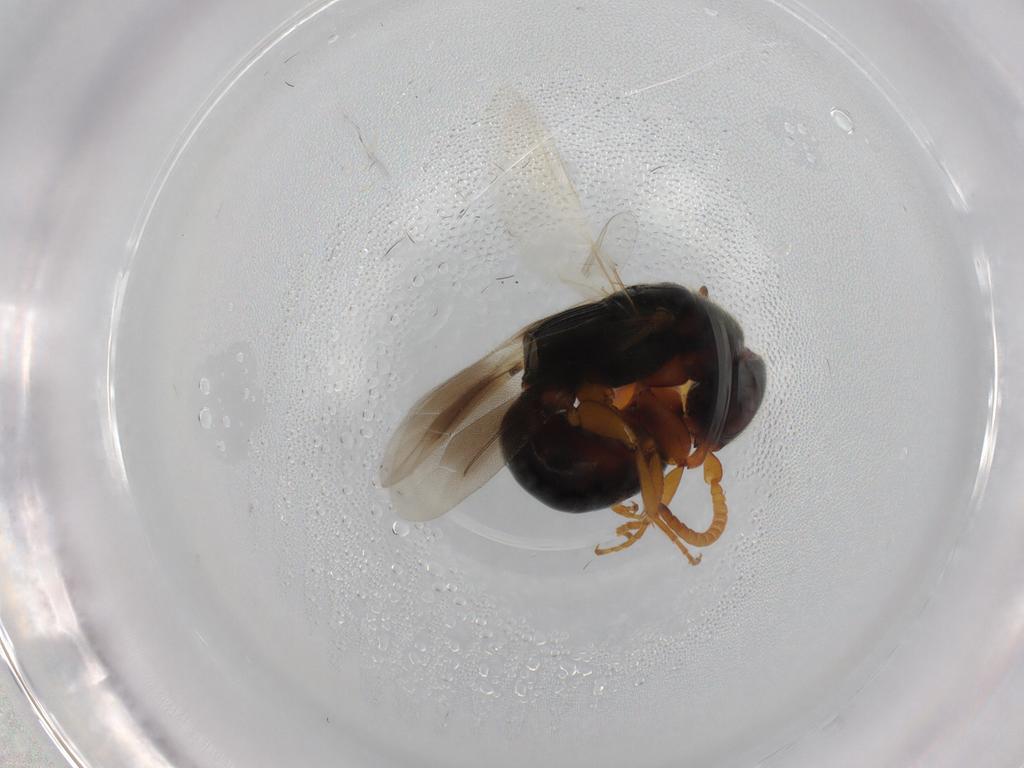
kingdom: Animalia
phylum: Arthropoda
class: Insecta
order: Hymenoptera
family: Bethylidae
